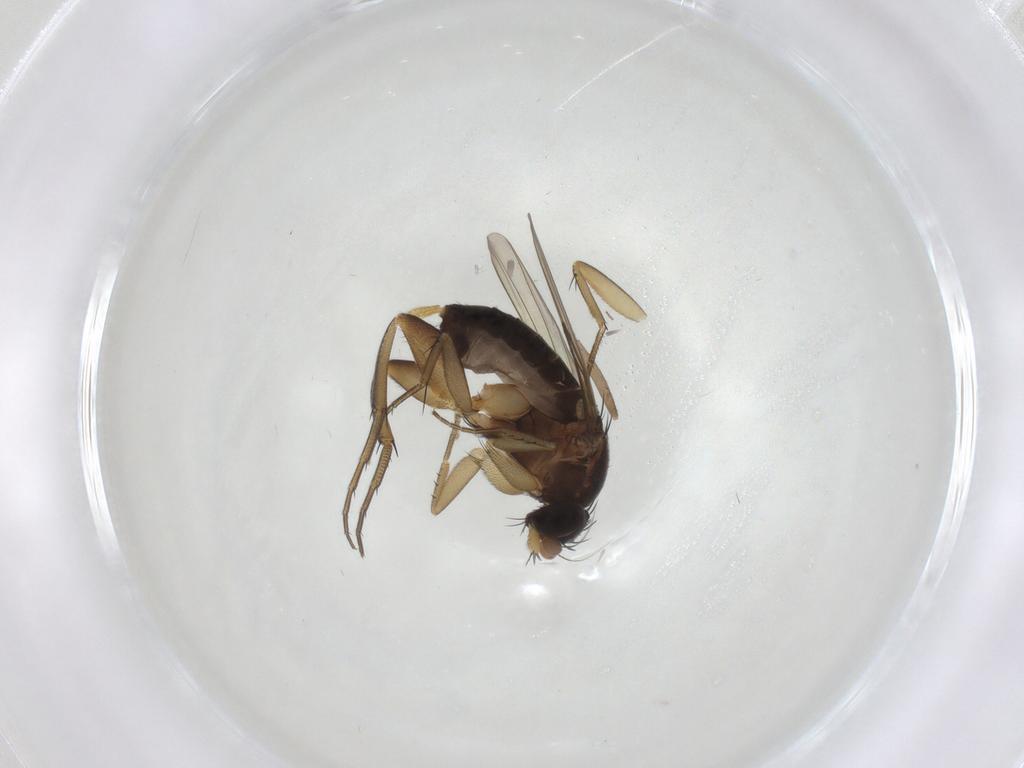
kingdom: Animalia
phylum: Arthropoda
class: Insecta
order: Diptera
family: Phoridae
